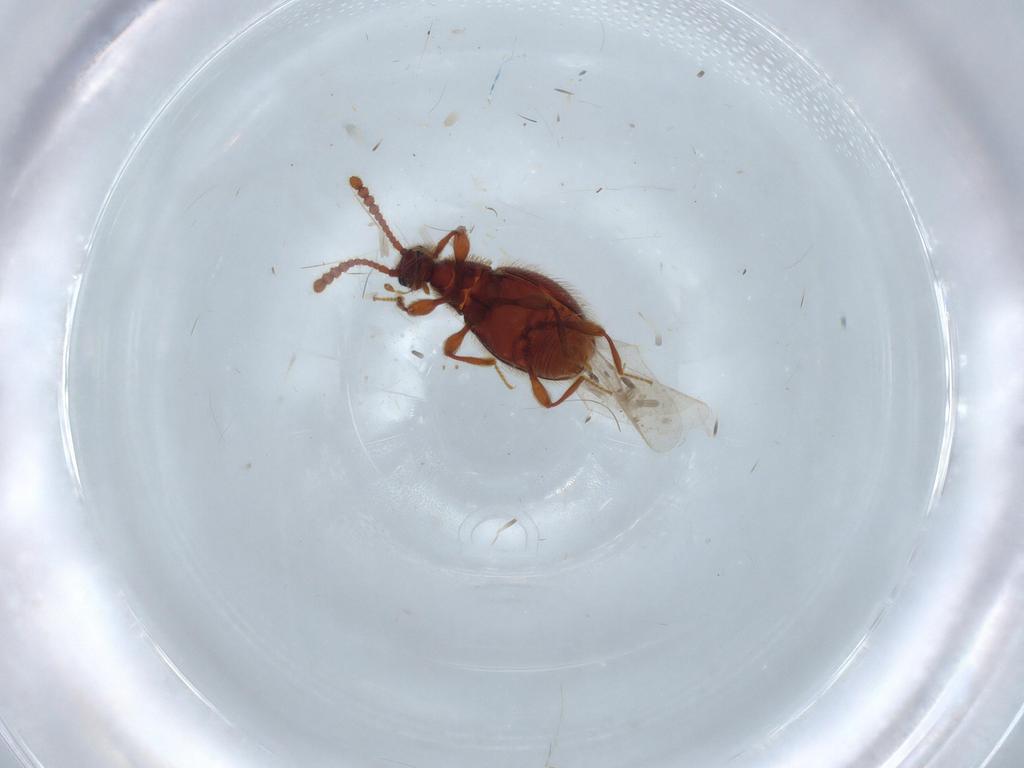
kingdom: Animalia
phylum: Arthropoda
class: Insecta
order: Coleoptera
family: Staphylinidae
